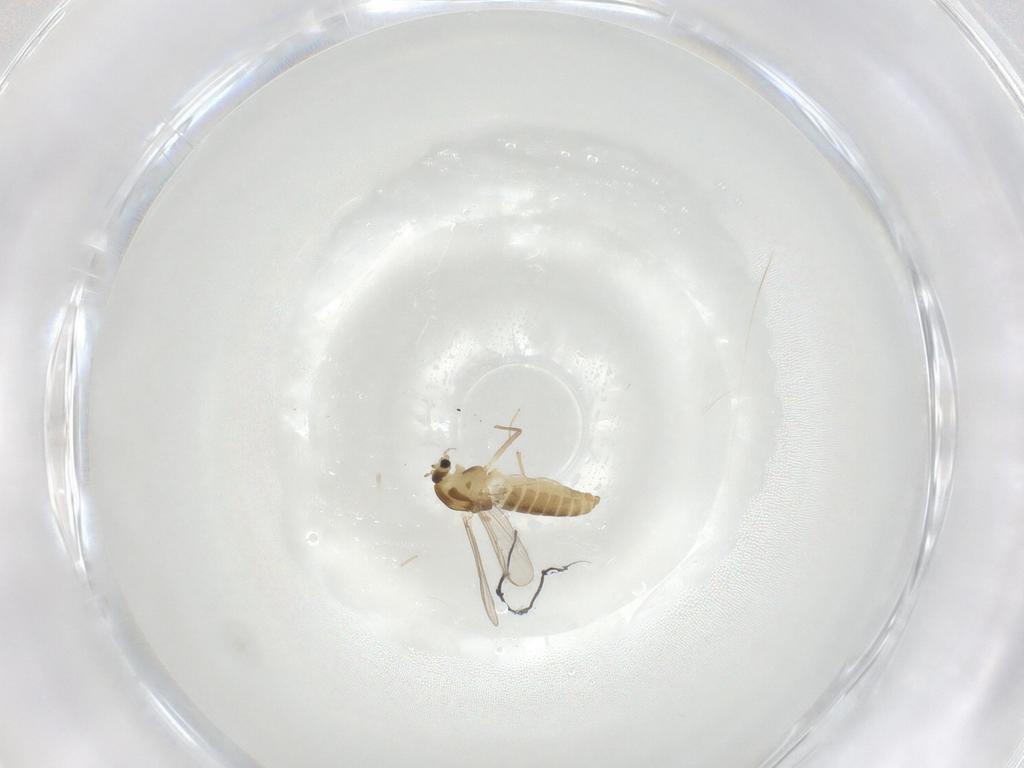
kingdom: Animalia
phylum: Arthropoda
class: Insecta
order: Diptera
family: Chironomidae
